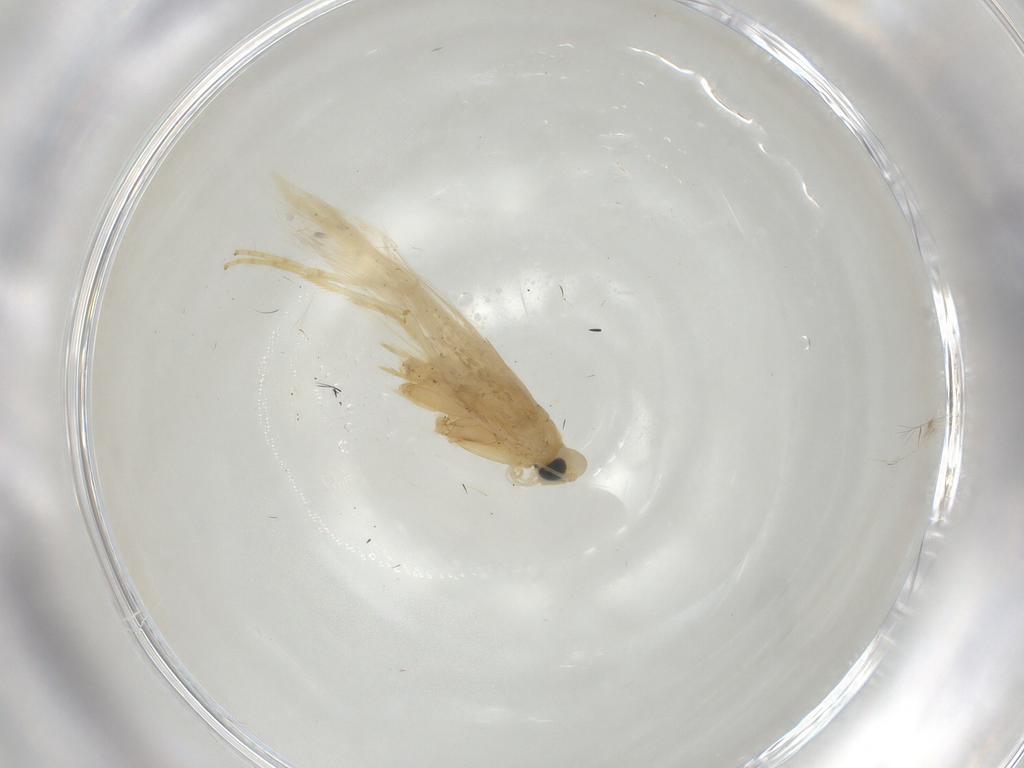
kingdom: Animalia
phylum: Arthropoda
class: Insecta
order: Lepidoptera
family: Tischeriidae
